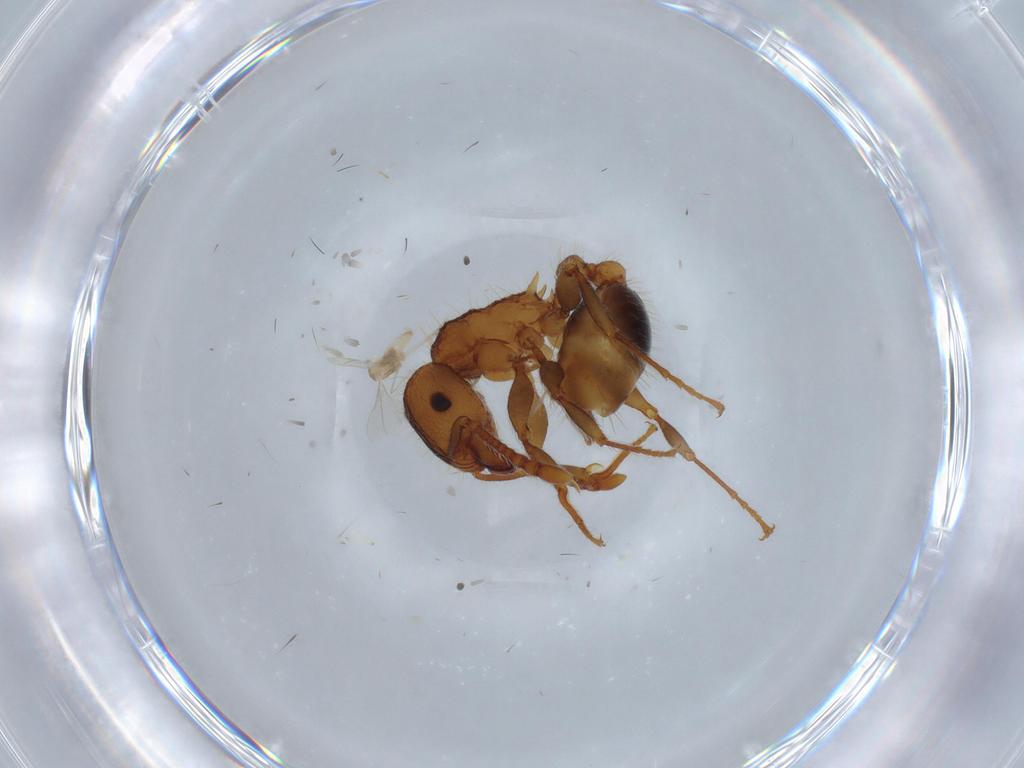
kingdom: Animalia
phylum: Arthropoda
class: Insecta
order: Hymenoptera
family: Formicidae
